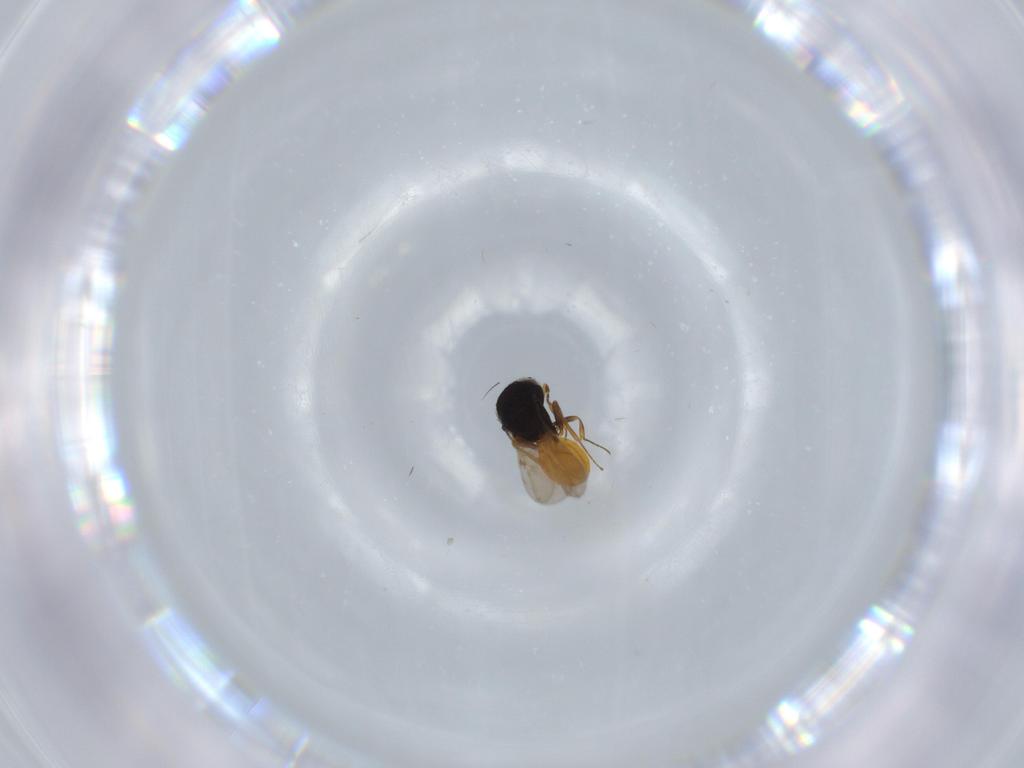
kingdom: Animalia
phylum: Arthropoda
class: Insecta
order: Hymenoptera
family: Scelionidae
